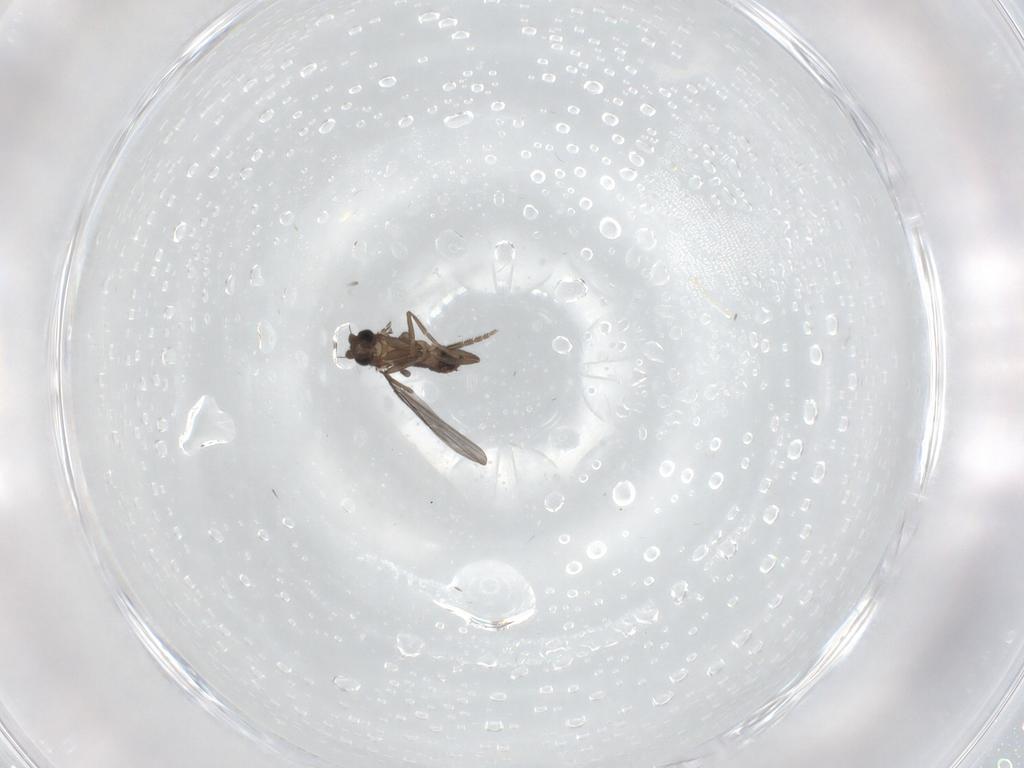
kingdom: Animalia
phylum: Arthropoda
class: Insecta
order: Diptera
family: Phoridae
